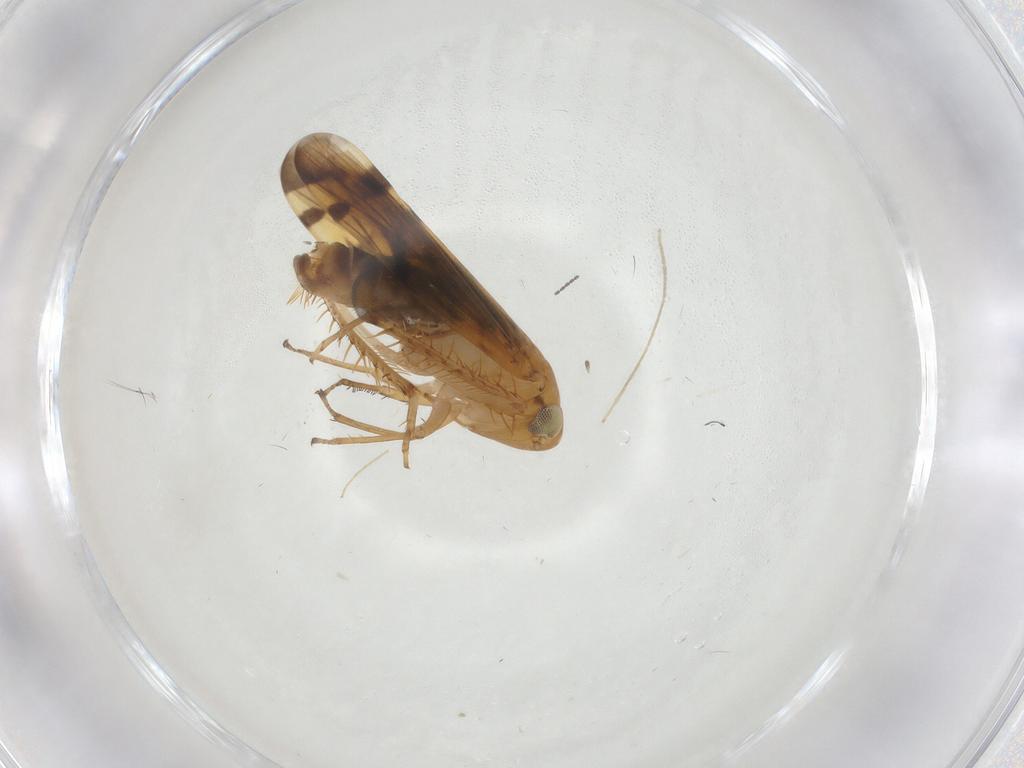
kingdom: Animalia
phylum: Arthropoda
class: Insecta
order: Hemiptera
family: Cicadellidae
